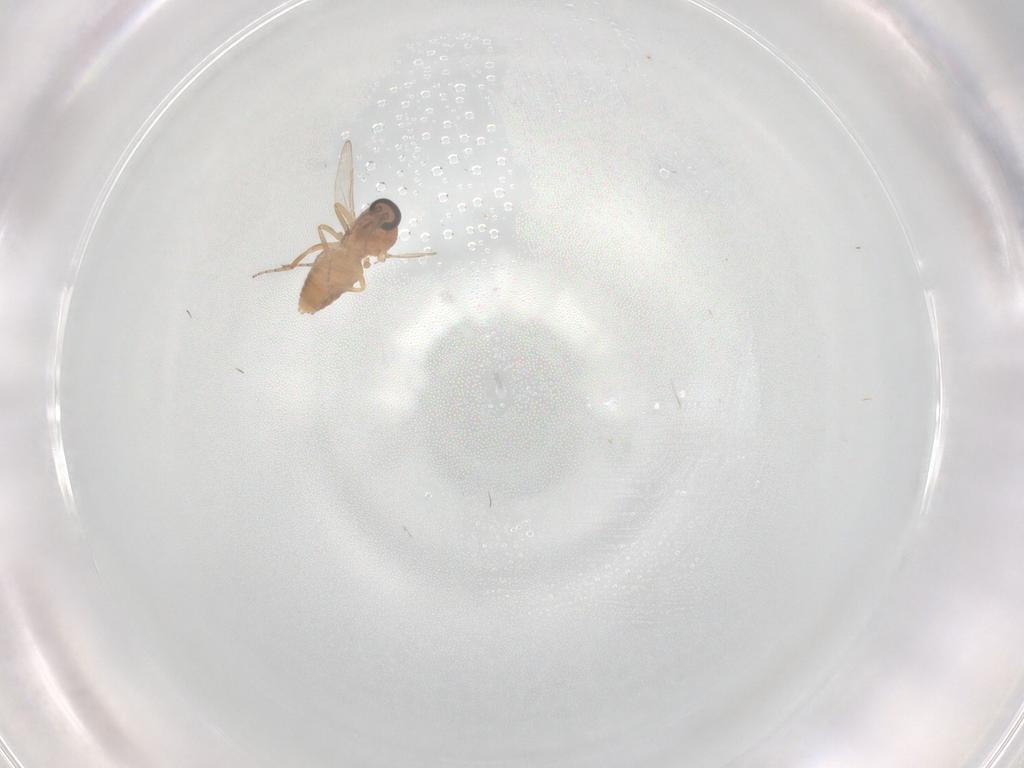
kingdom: Animalia
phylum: Arthropoda
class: Insecta
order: Diptera
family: Ceratopogonidae
